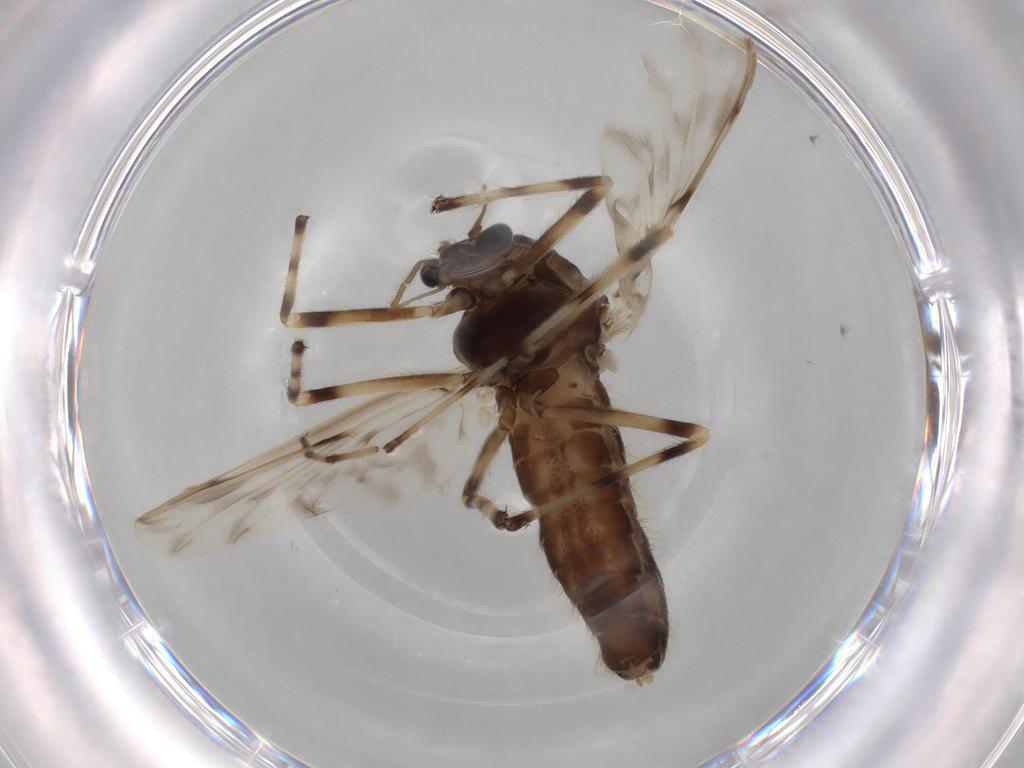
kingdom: Animalia
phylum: Arthropoda
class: Insecta
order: Diptera
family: Chironomidae
